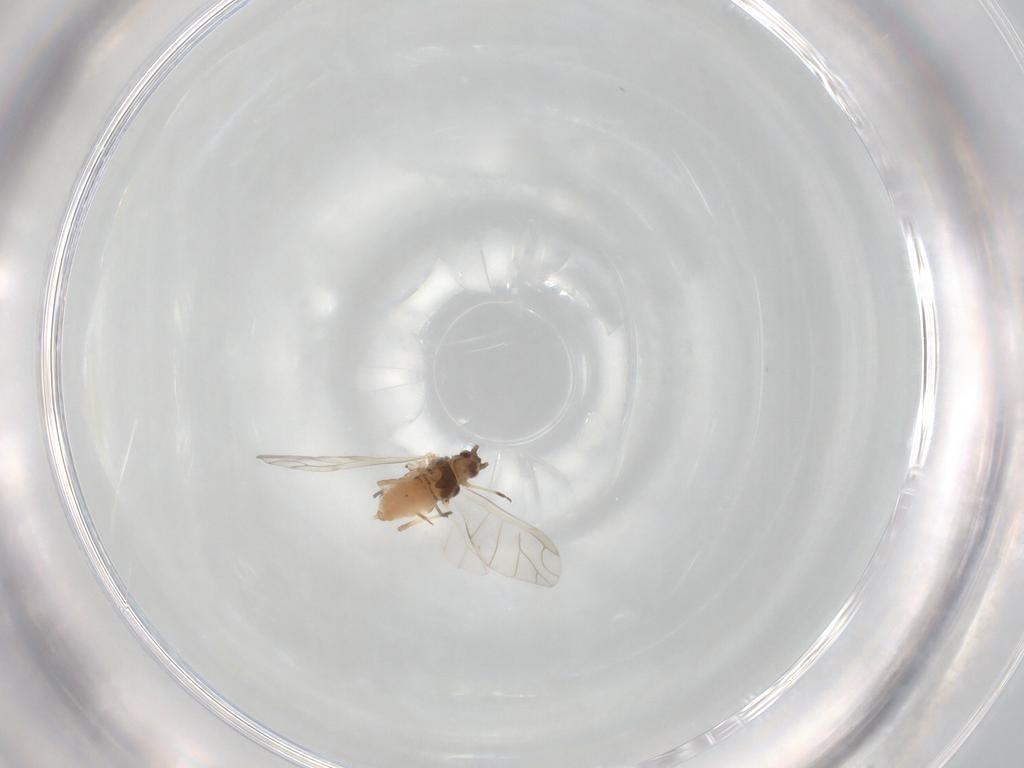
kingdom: Animalia
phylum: Arthropoda
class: Insecta
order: Hemiptera
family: Aphididae
